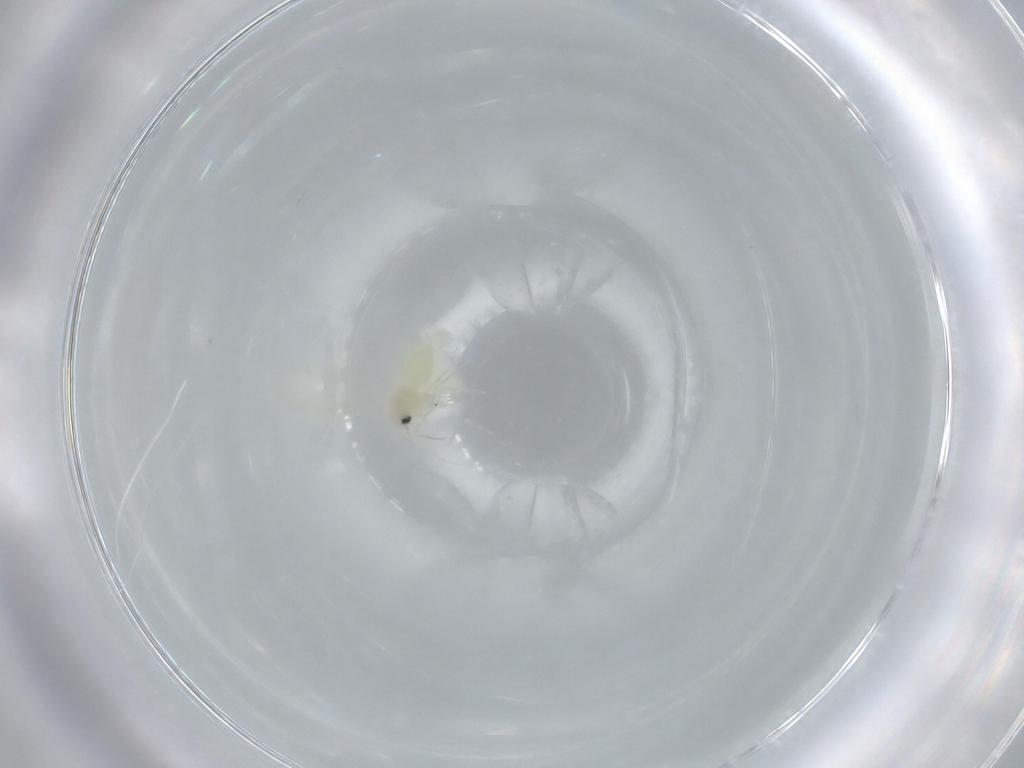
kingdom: Animalia
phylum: Arthropoda
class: Insecta
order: Hemiptera
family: Aleyrodidae
